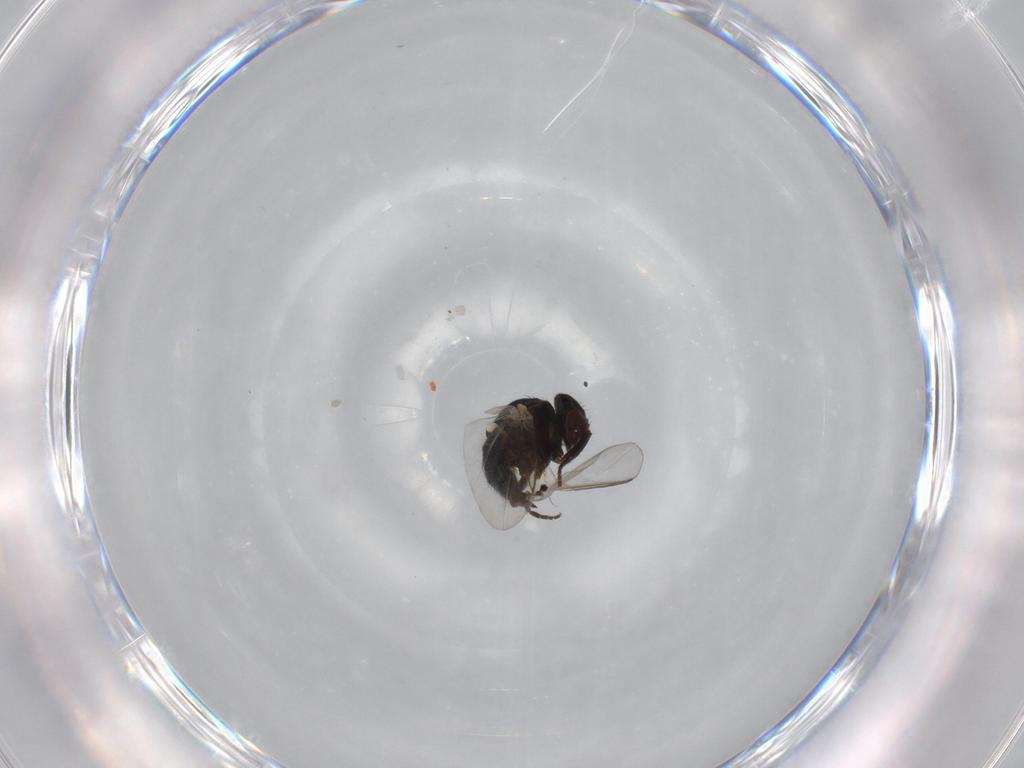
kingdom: Animalia
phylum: Arthropoda
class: Insecta
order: Diptera
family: Agromyzidae
